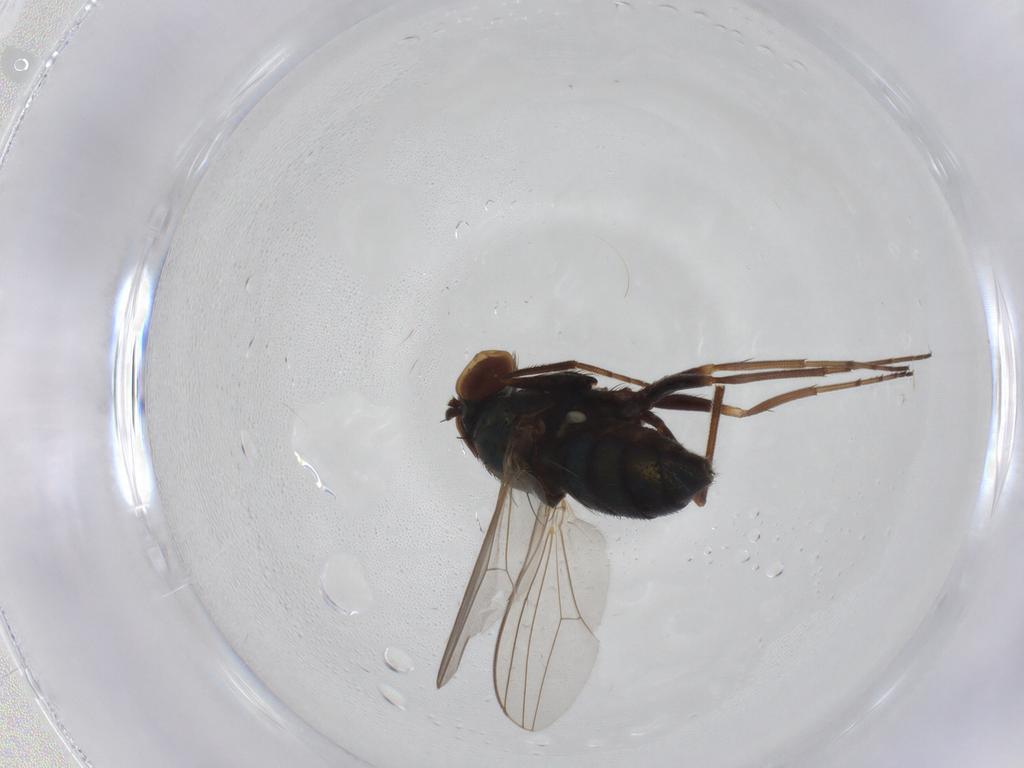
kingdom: Animalia
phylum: Arthropoda
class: Insecta
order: Diptera
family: Dolichopodidae
